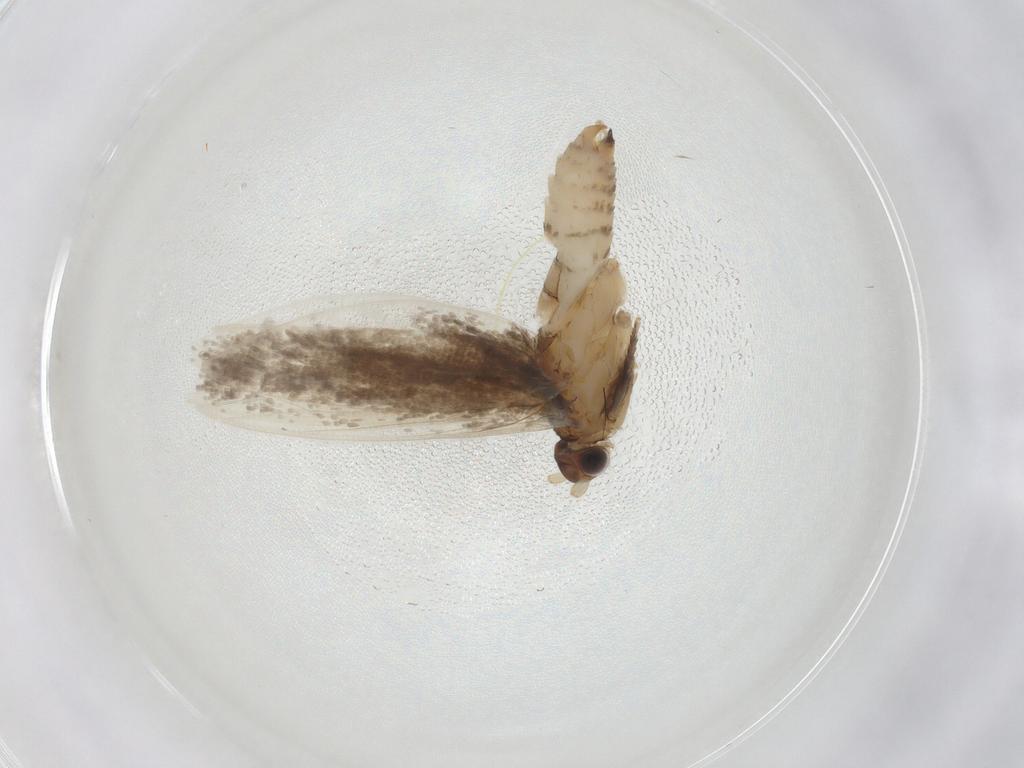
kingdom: Animalia
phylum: Arthropoda
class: Insecta
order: Lepidoptera
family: Tineidae
